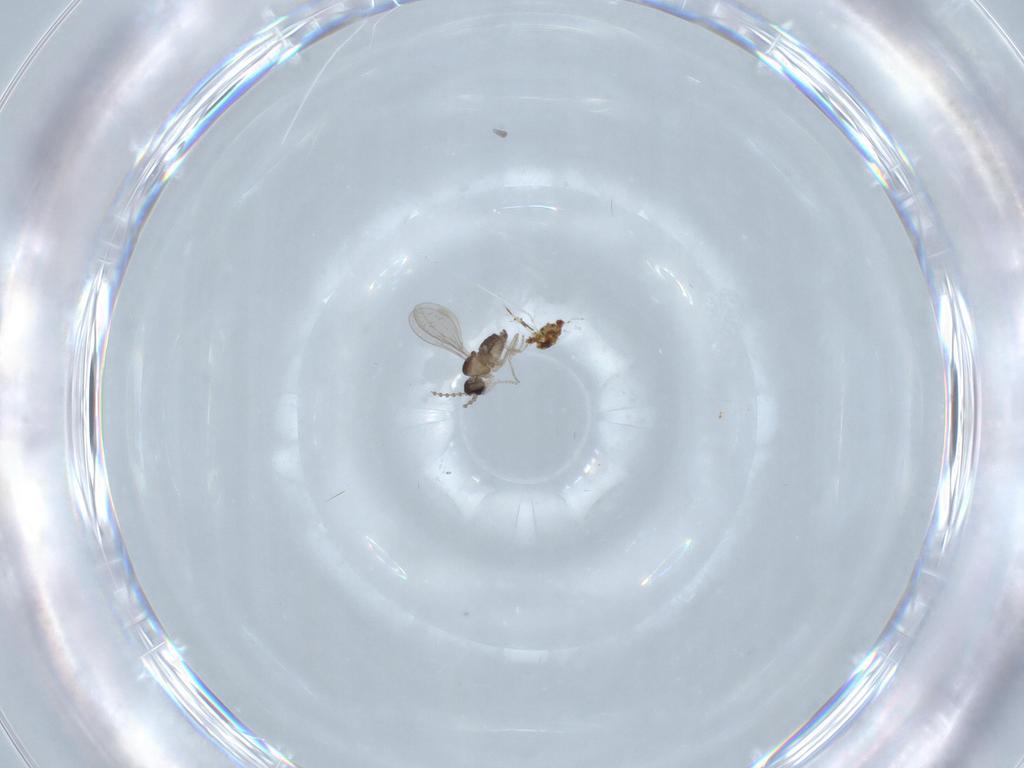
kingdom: Animalia
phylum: Arthropoda
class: Insecta
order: Diptera
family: Cecidomyiidae
